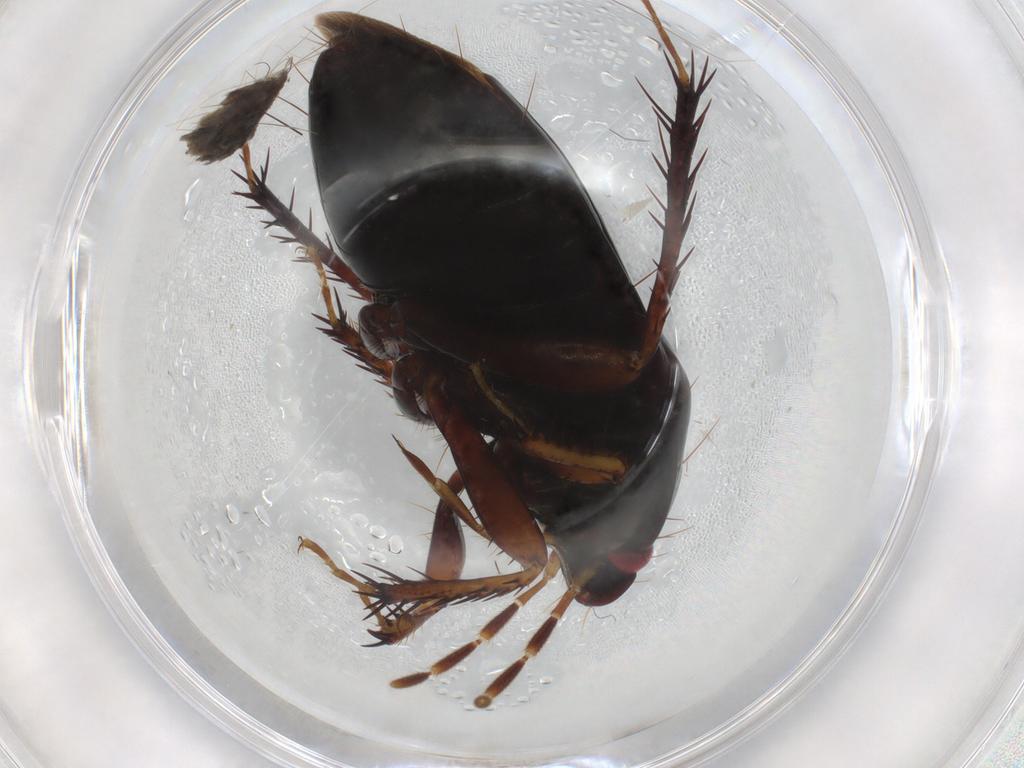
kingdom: Animalia
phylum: Arthropoda
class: Insecta
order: Hemiptera
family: Cydnidae
